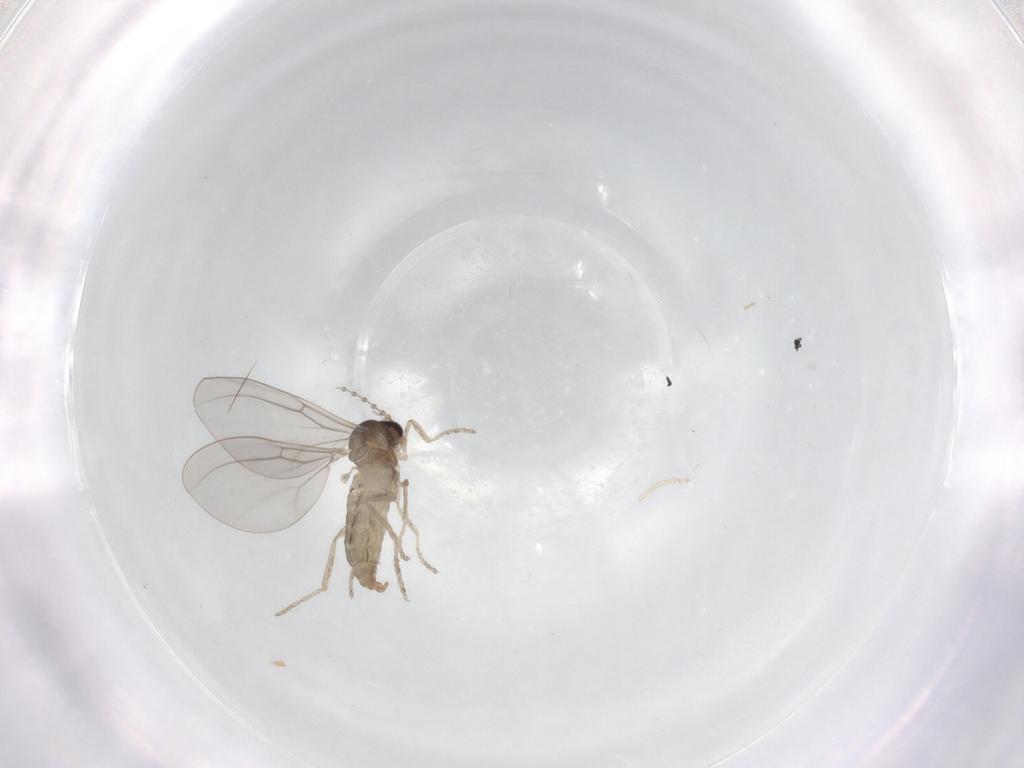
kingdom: Animalia
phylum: Arthropoda
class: Insecta
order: Diptera
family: Cecidomyiidae
